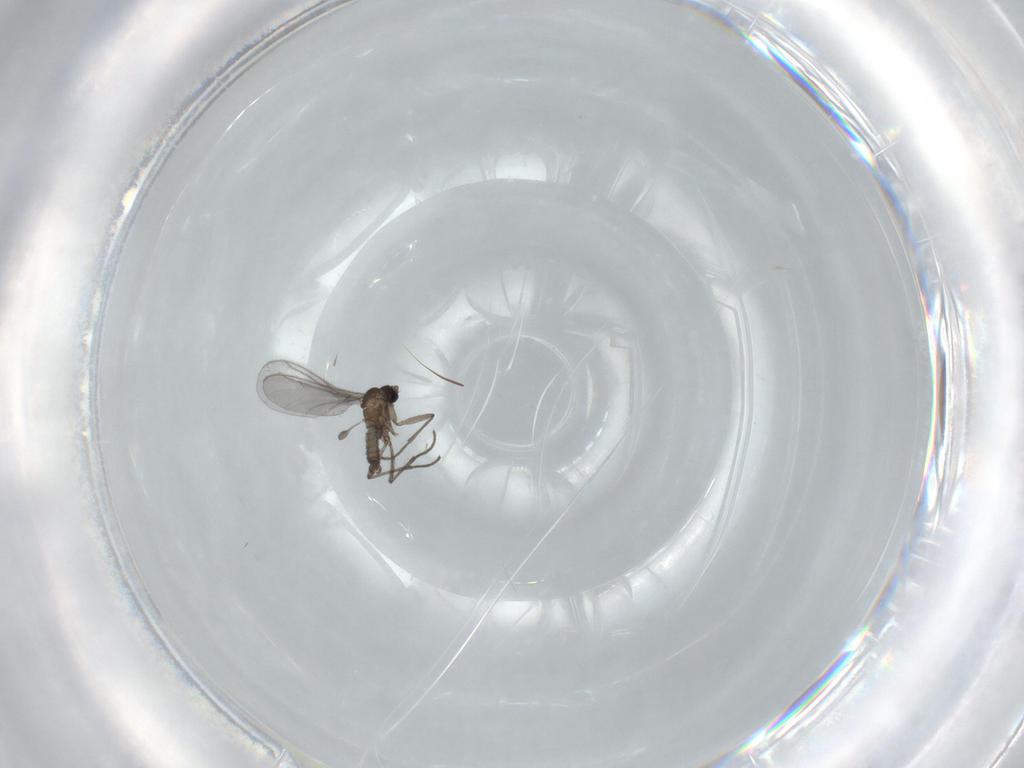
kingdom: Animalia
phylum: Arthropoda
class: Insecta
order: Diptera
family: Sciaridae
